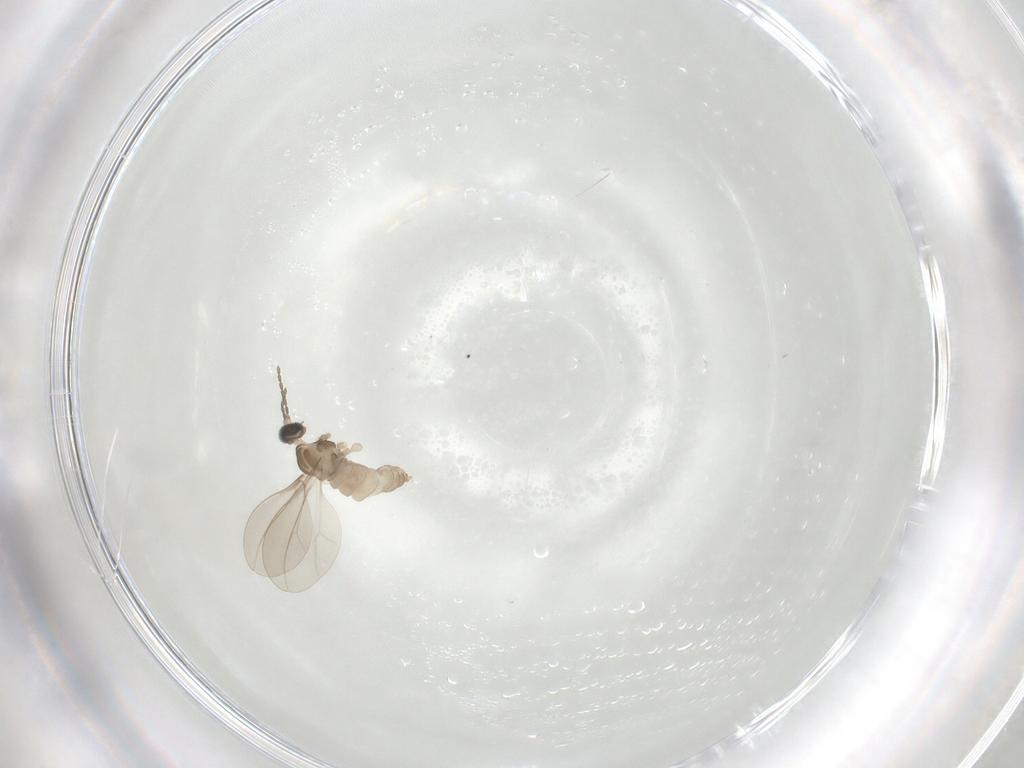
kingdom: Animalia
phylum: Arthropoda
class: Insecta
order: Diptera
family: Cecidomyiidae
